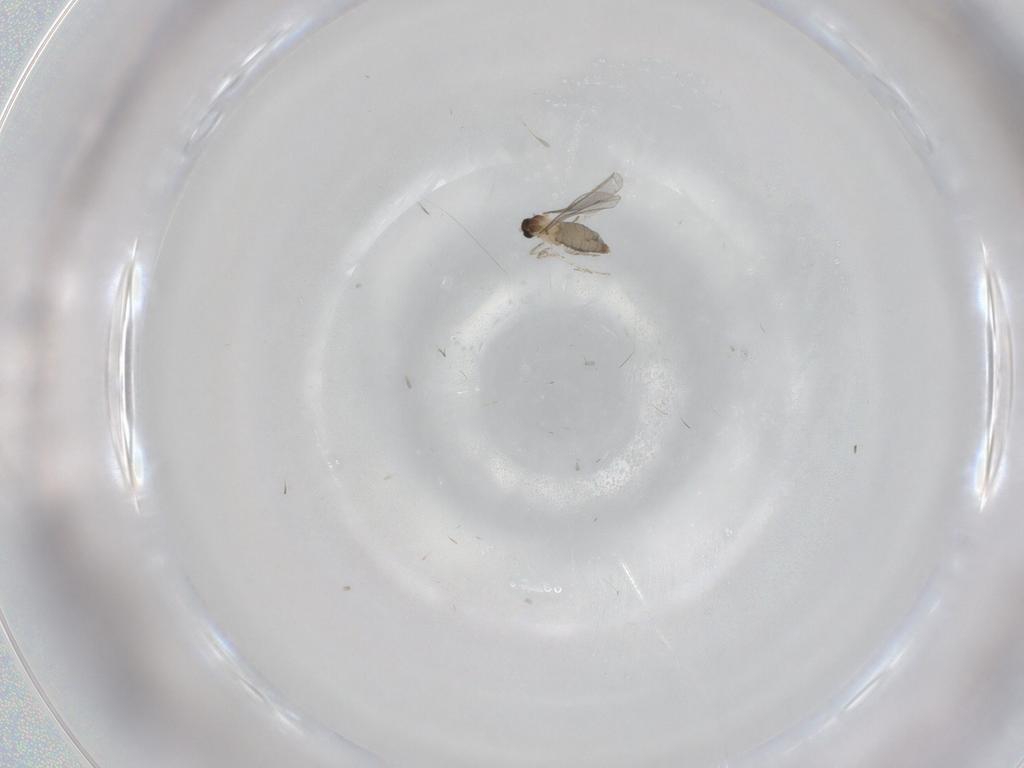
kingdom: Animalia
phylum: Arthropoda
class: Insecta
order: Diptera
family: Cecidomyiidae
